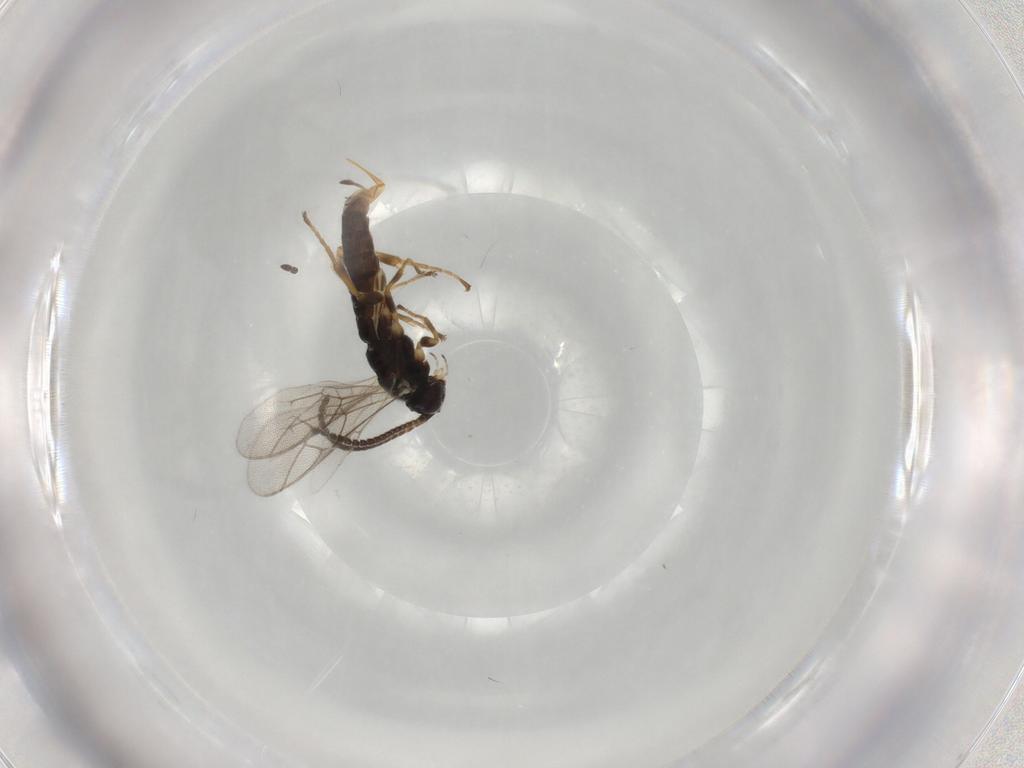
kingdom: Animalia
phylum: Arthropoda
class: Insecta
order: Hymenoptera
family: Ichneumonidae
